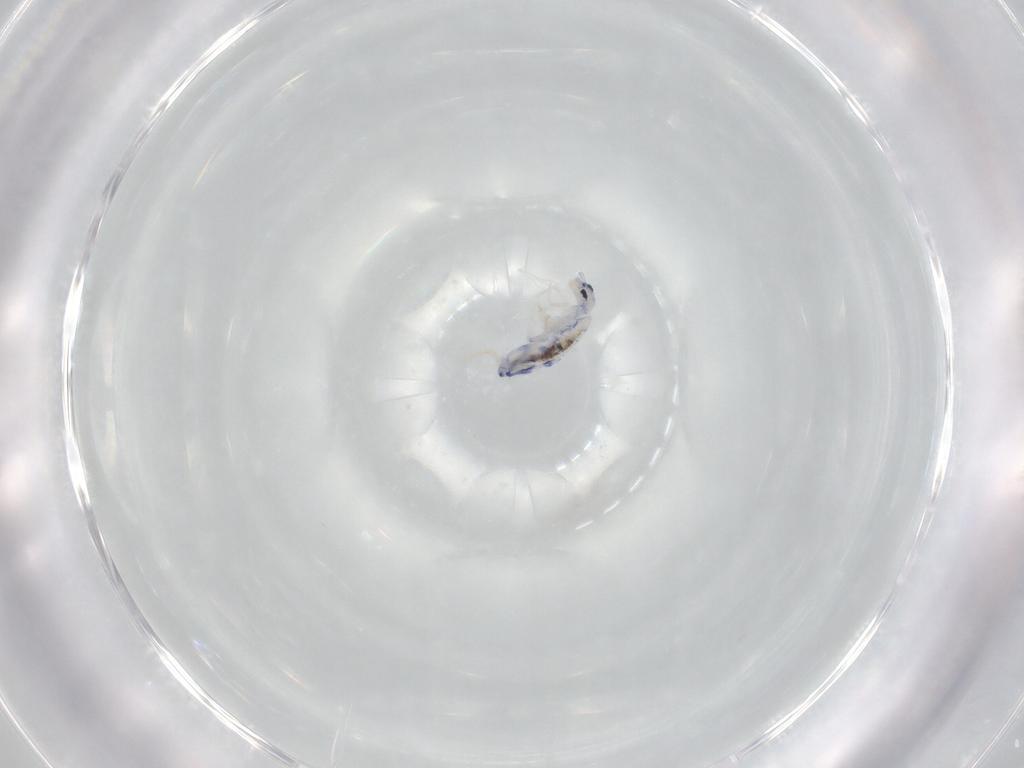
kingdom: Animalia
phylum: Arthropoda
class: Collembola
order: Entomobryomorpha
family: Entomobryidae
